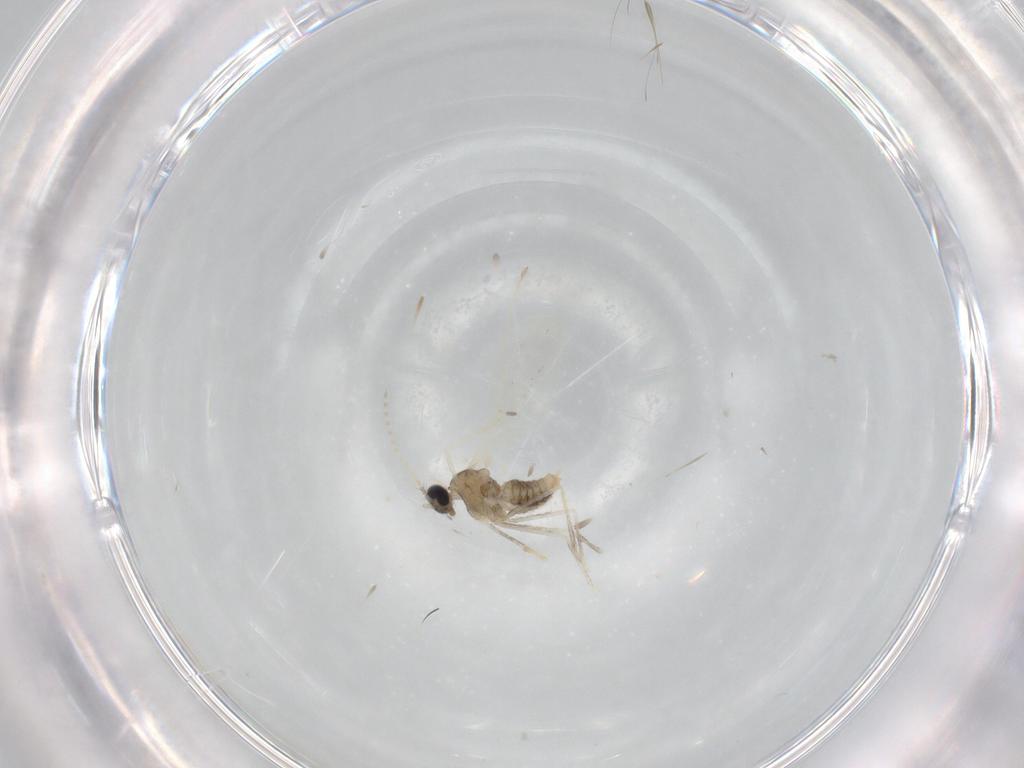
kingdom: Animalia
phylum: Arthropoda
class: Insecta
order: Diptera
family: Cecidomyiidae
